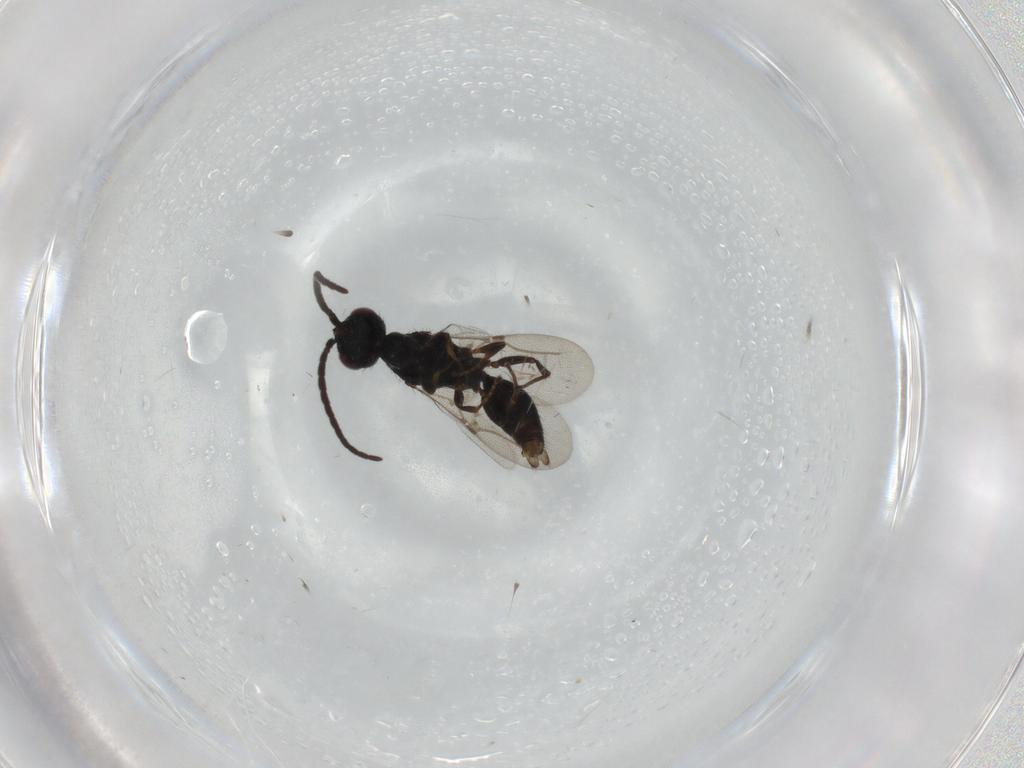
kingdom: Animalia
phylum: Arthropoda
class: Insecta
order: Hymenoptera
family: Bethylidae
